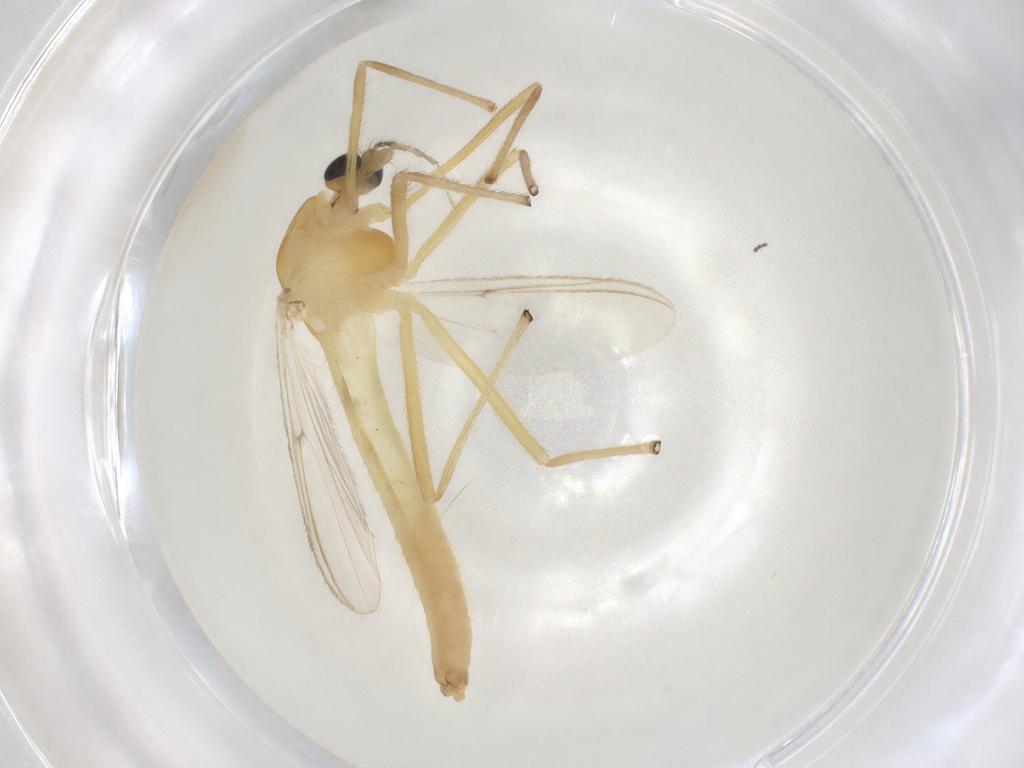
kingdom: Animalia
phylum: Arthropoda
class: Insecta
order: Diptera
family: Chironomidae
